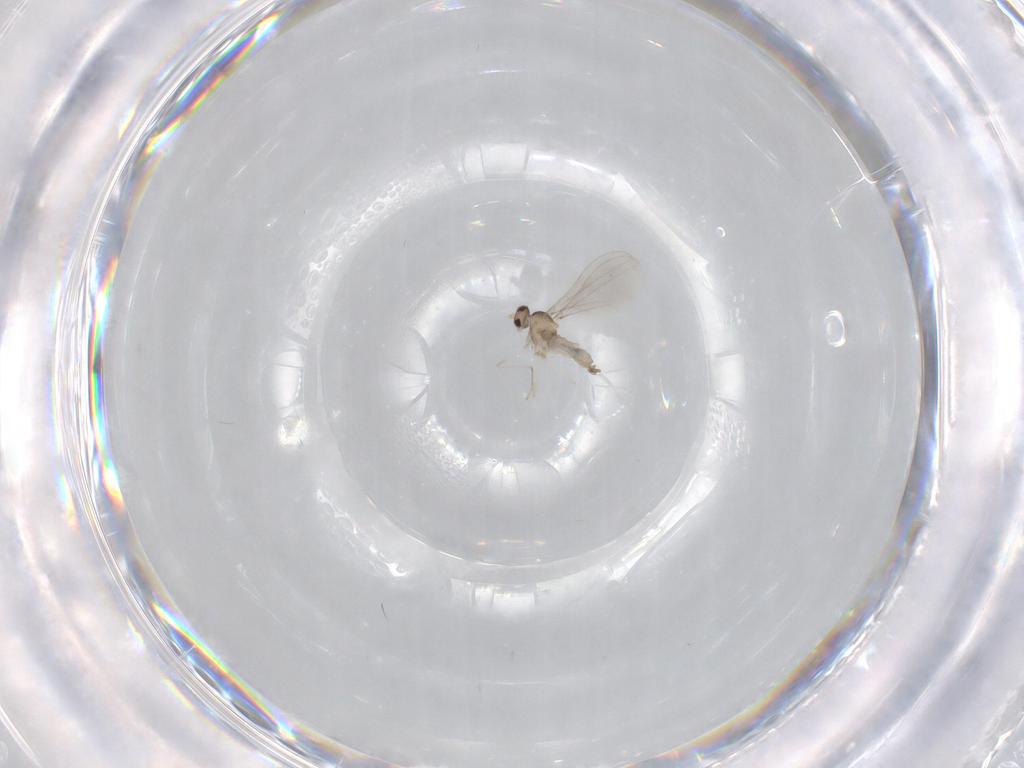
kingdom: Animalia
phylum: Arthropoda
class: Insecta
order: Diptera
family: Cecidomyiidae
